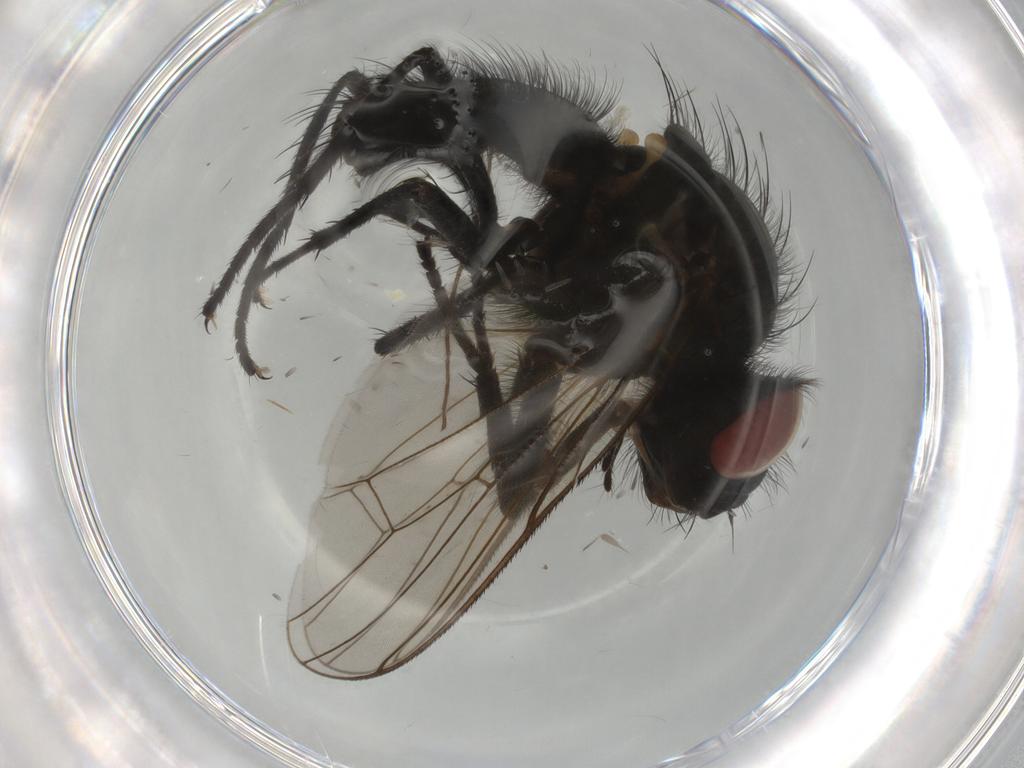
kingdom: Animalia
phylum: Arthropoda
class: Insecta
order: Diptera
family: Anthomyiidae
